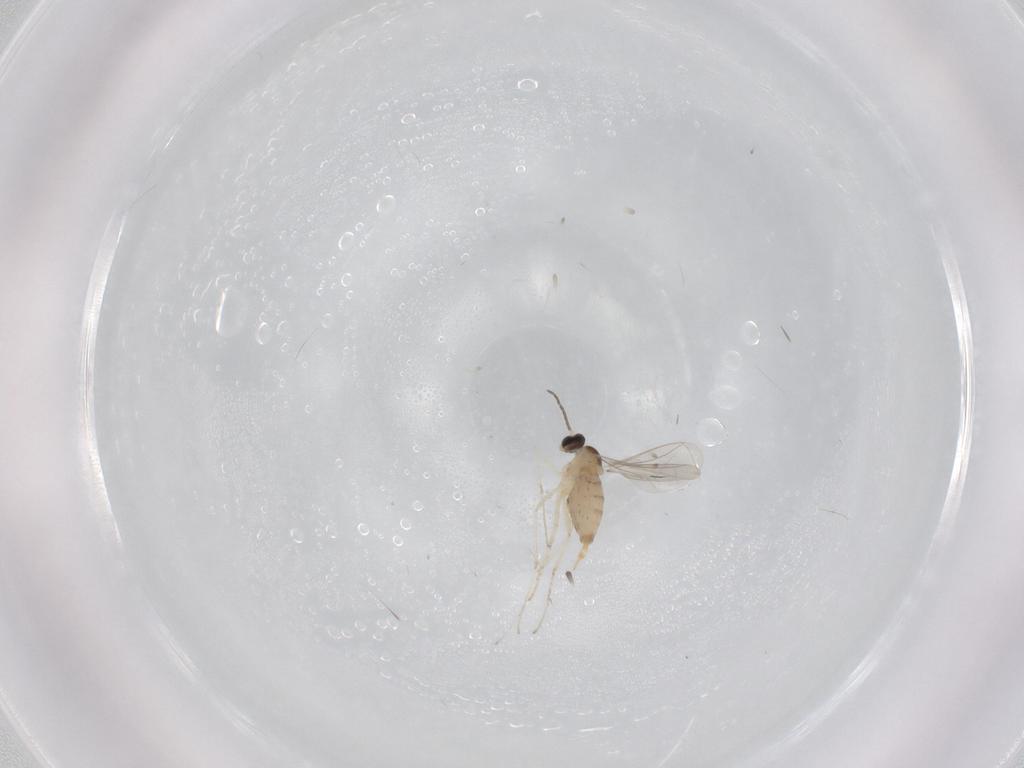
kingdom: Animalia
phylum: Arthropoda
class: Insecta
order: Diptera
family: Cecidomyiidae
